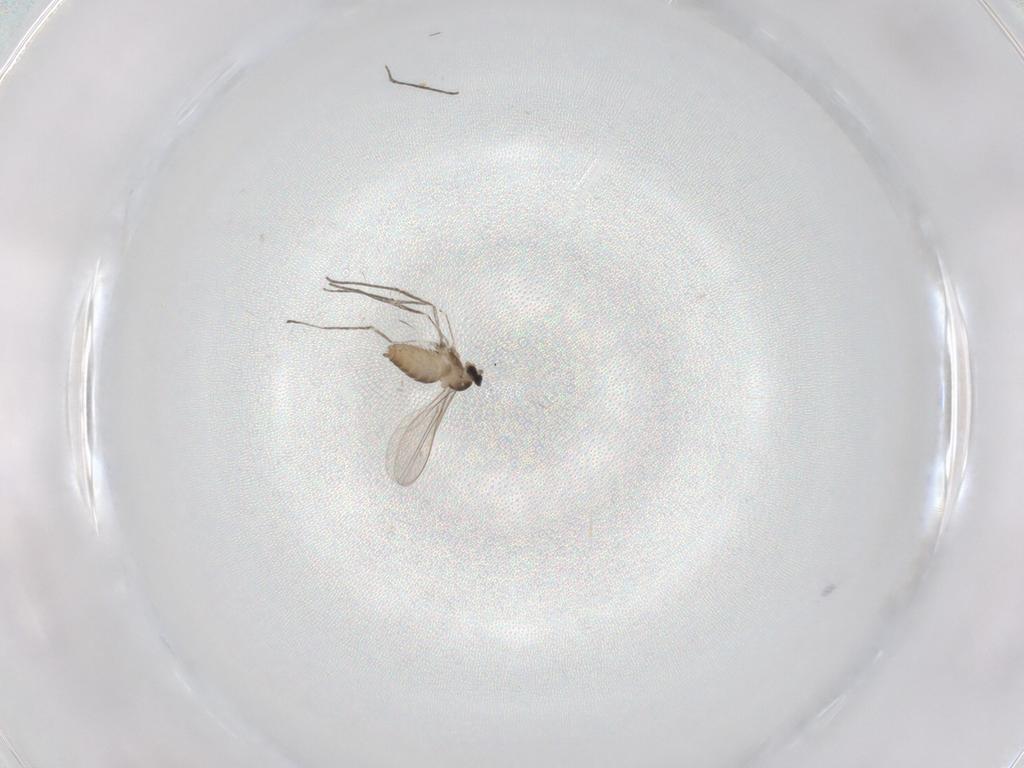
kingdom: Animalia
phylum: Arthropoda
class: Insecta
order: Diptera
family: Cecidomyiidae
